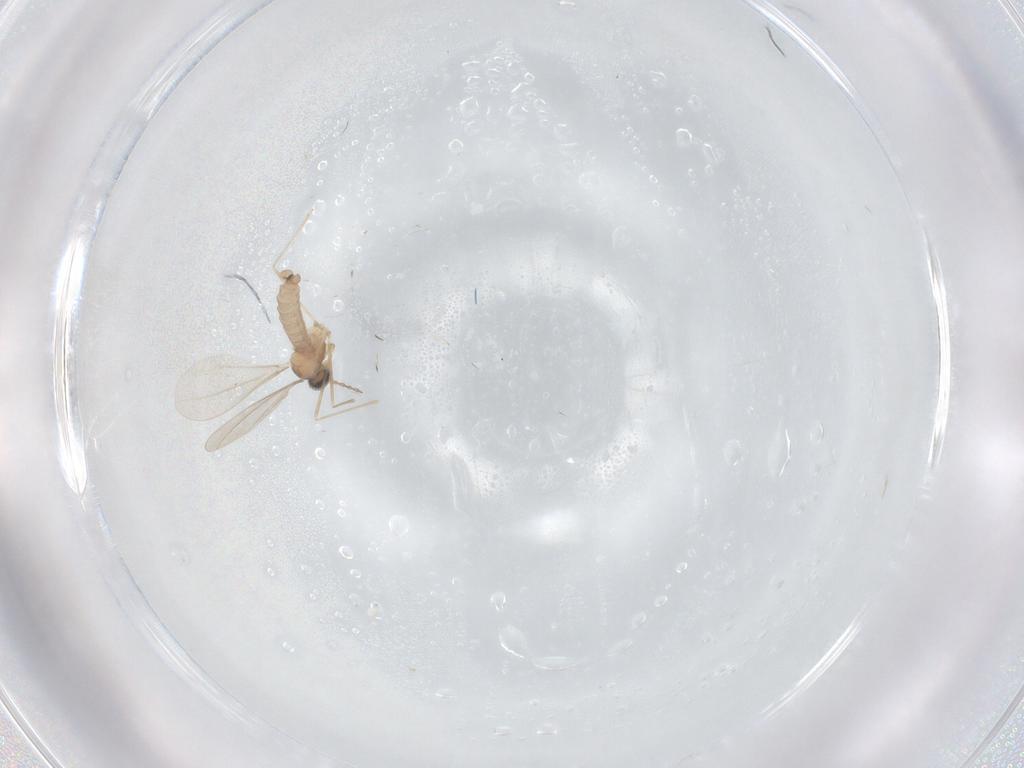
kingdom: Animalia
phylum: Arthropoda
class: Insecta
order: Diptera
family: Cecidomyiidae
